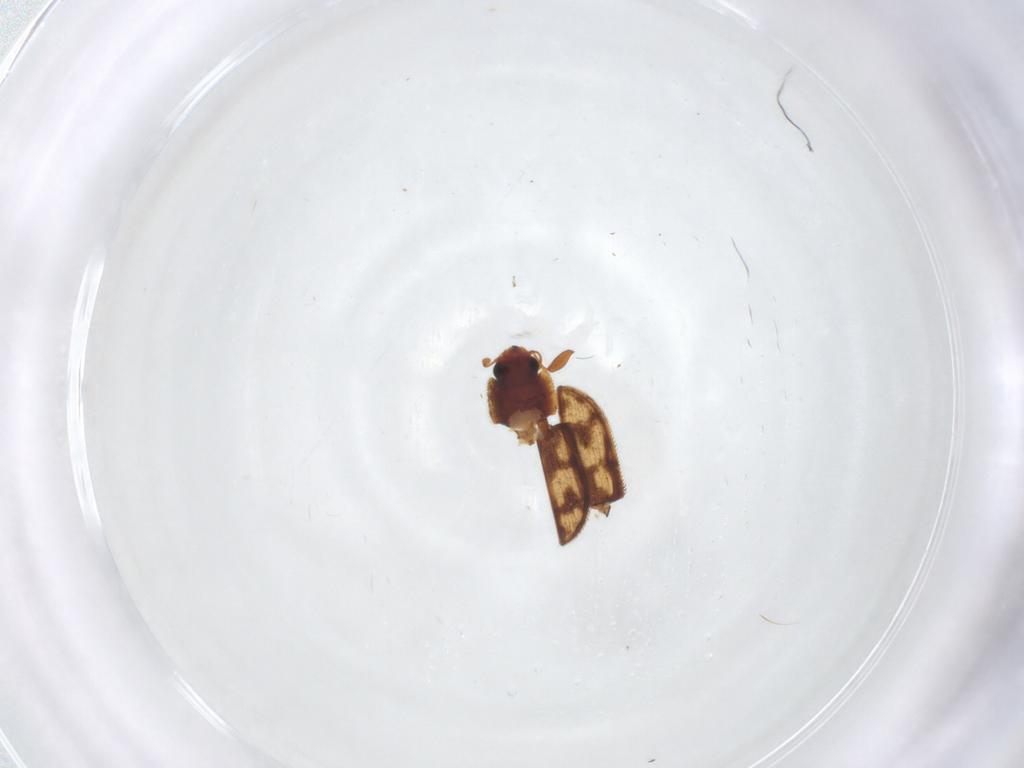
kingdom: Animalia
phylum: Arthropoda
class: Insecta
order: Coleoptera
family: Zopheridae
